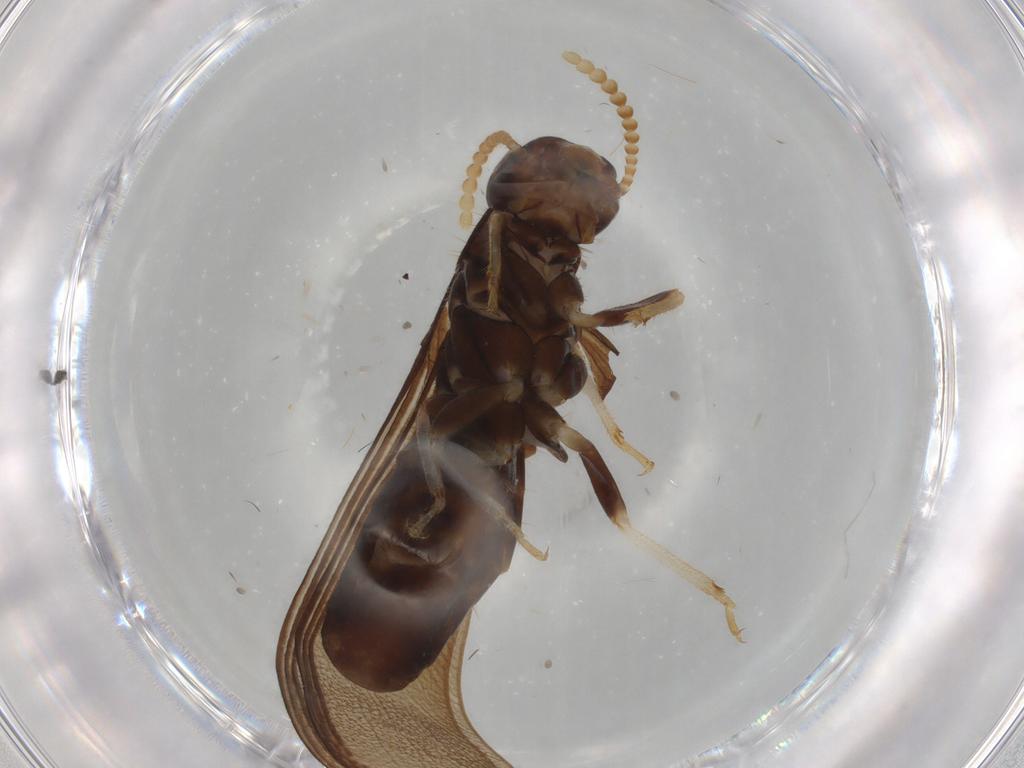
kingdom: Animalia
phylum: Arthropoda
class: Insecta
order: Blattodea
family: Kalotermitidae
